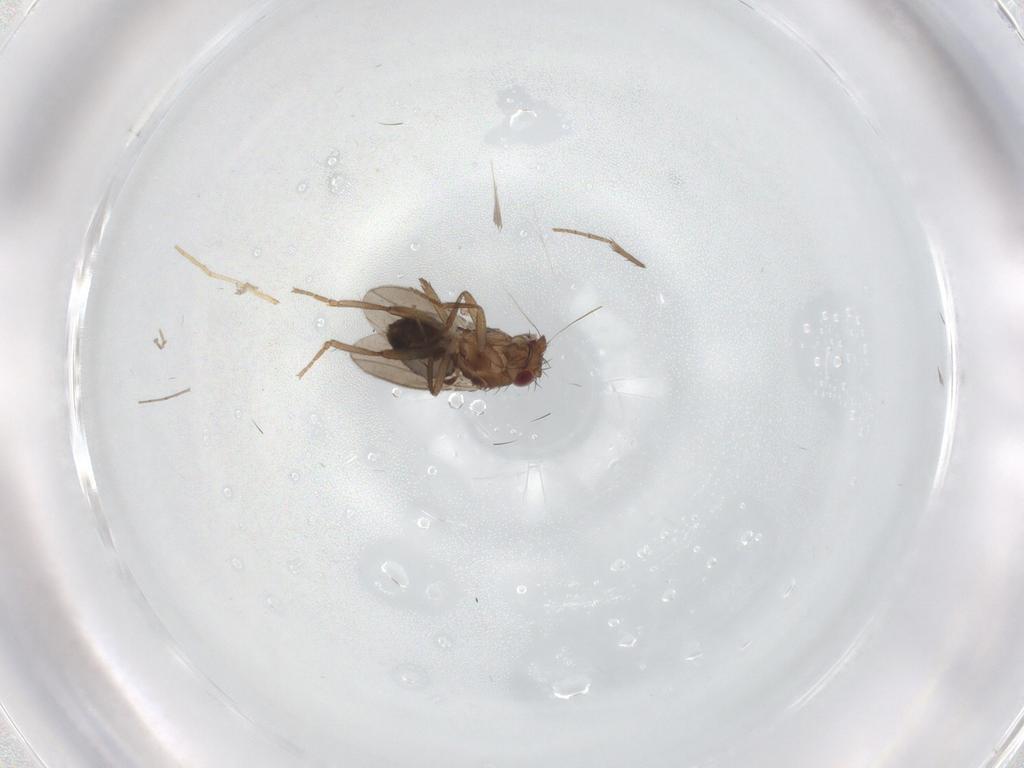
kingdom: Animalia
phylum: Arthropoda
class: Insecta
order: Diptera
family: Sphaeroceridae
